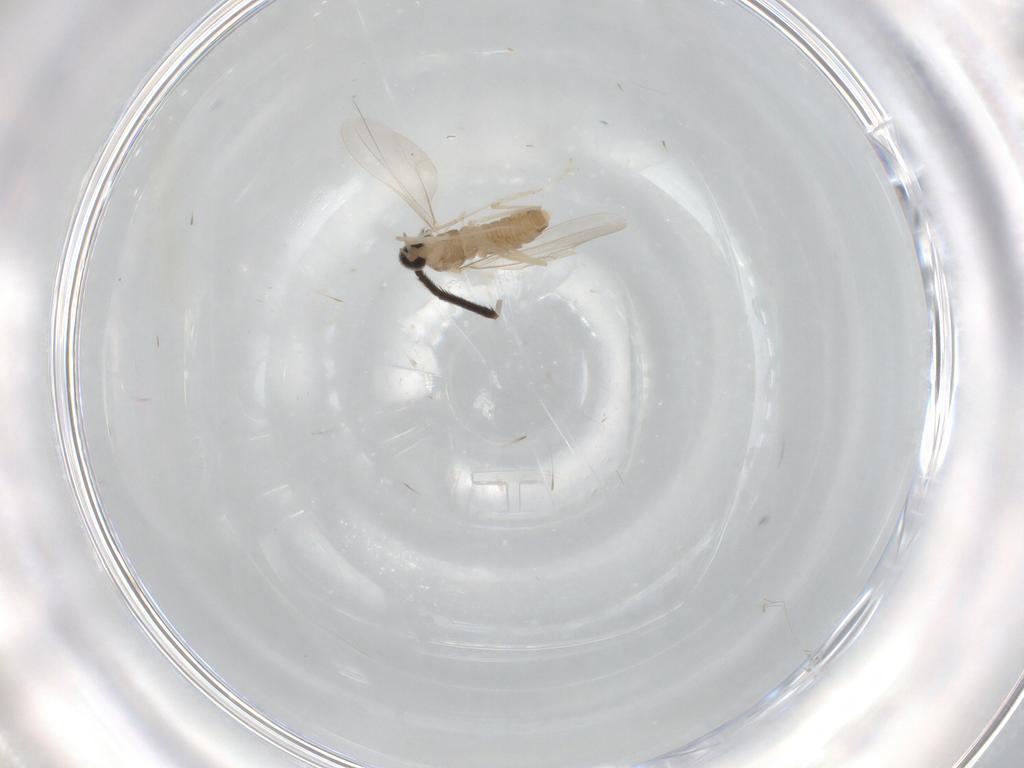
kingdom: Animalia
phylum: Arthropoda
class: Insecta
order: Diptera
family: Cecidomyiidae
